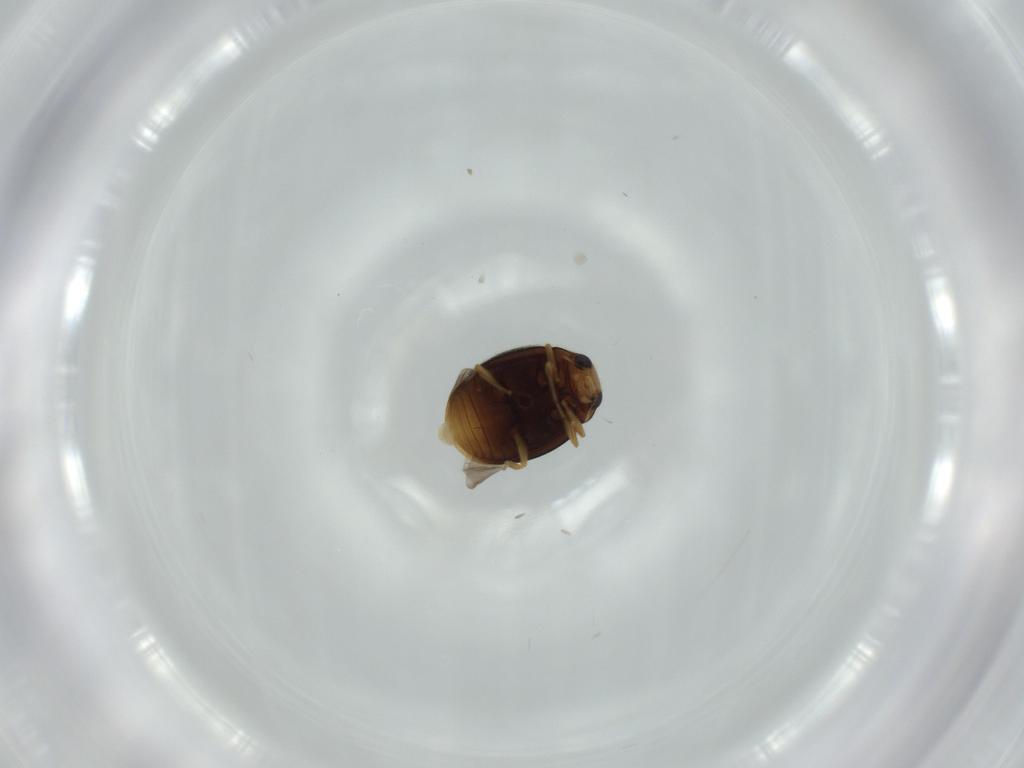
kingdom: Animalia
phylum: Arthropoda
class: Insecta
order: Coleoptera
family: Coccinellidae
